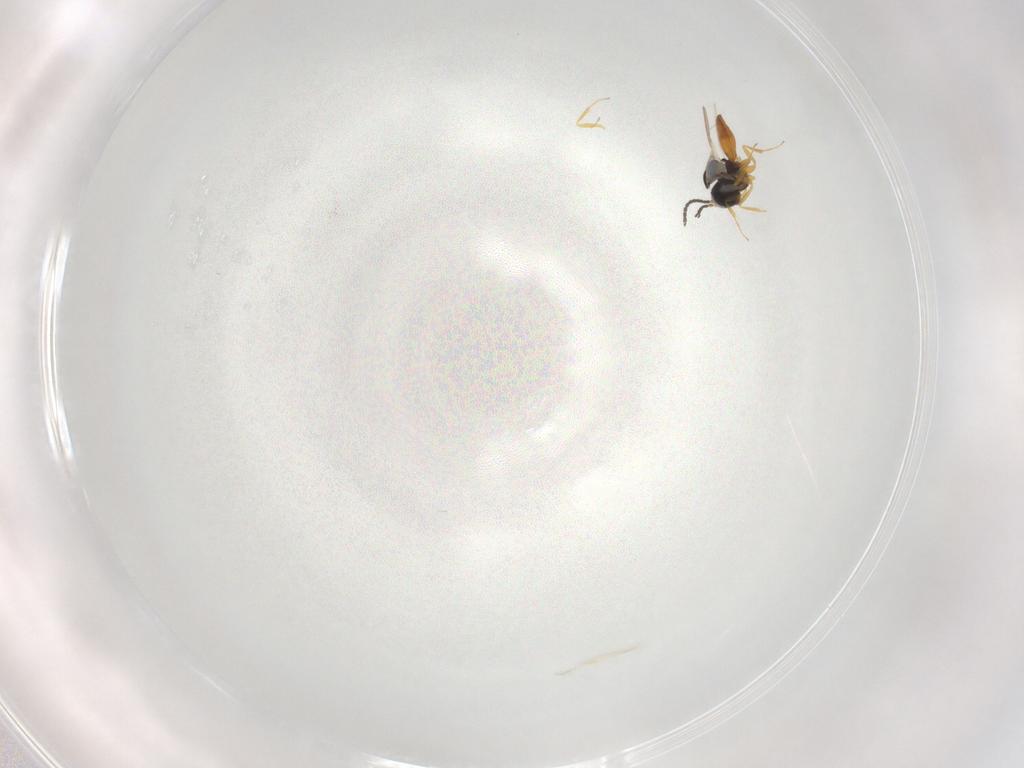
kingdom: Animalia
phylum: Arthropoda
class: Insecta
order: Hymenoptera
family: Scelionidae
